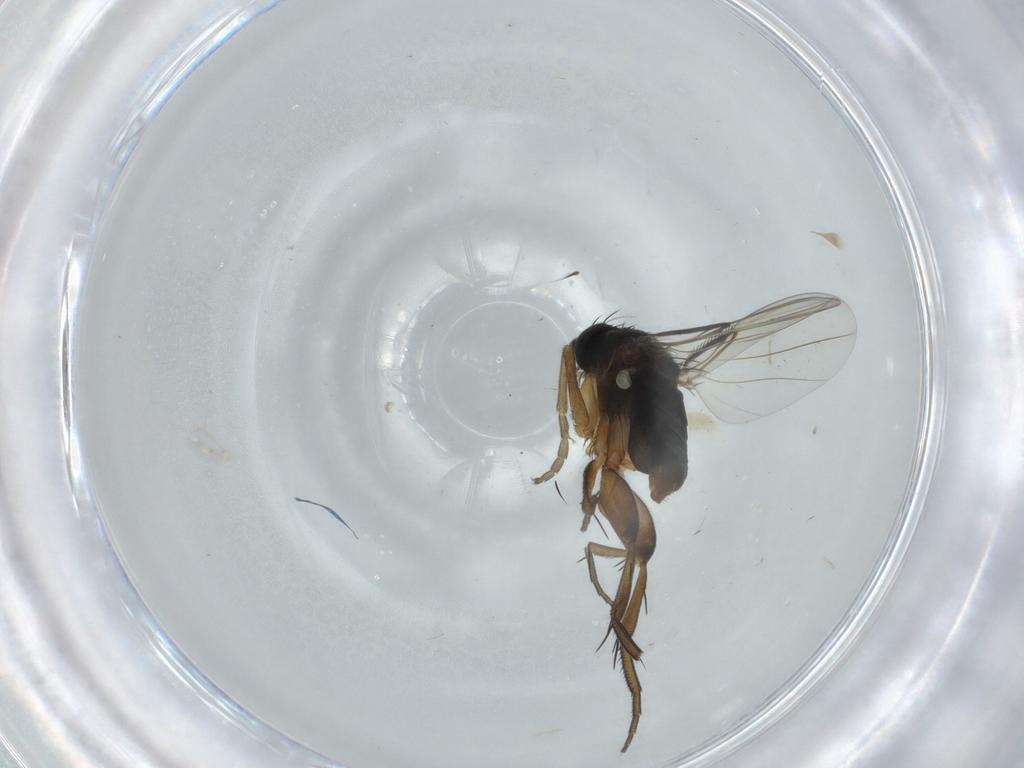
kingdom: Animalia
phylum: Arthropoda
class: Insecta
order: Diptera
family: Phoridae
